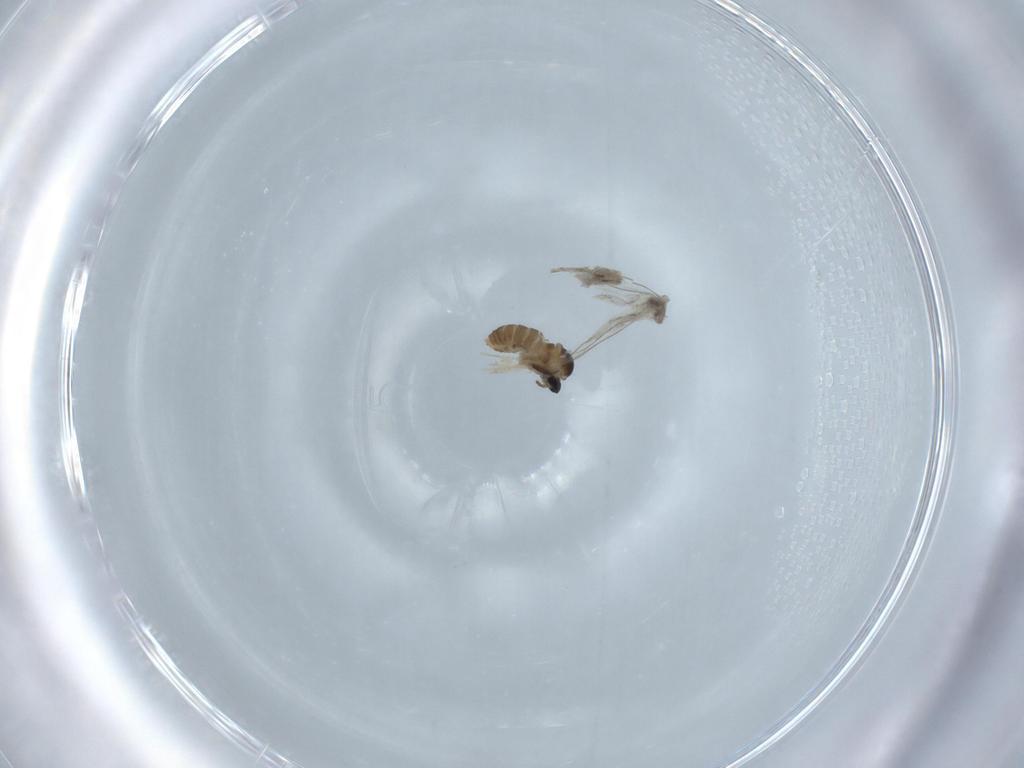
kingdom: Animalia
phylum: Arthropoda
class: Insecta
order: Diptera
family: Cecidomyiidae
